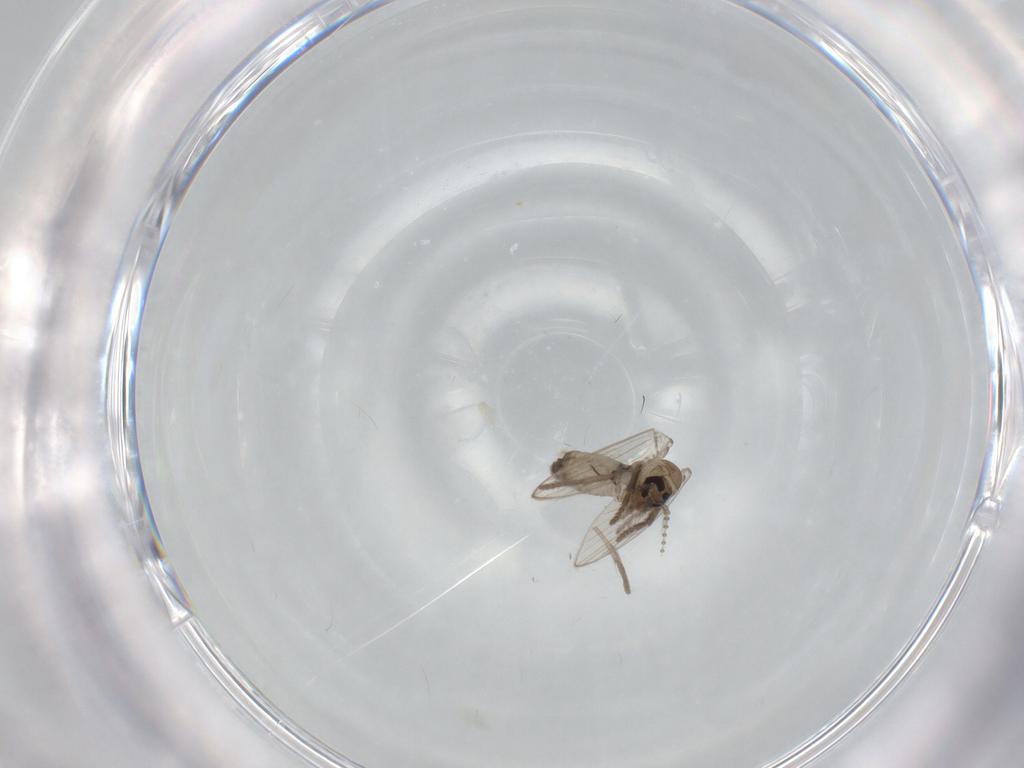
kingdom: Animalia
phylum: Arthropoda
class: Insecta
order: Diptera
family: Psychodidae
